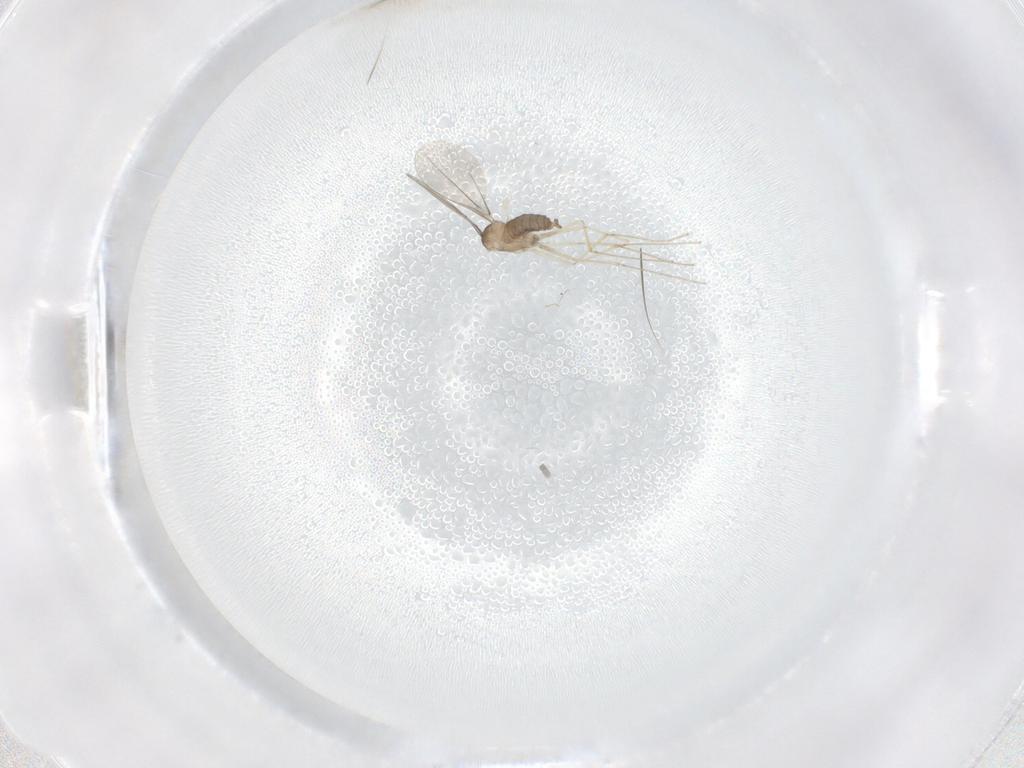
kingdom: Animalia
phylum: Arthropoda
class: Insecta
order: Diptera
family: Cecidomyiidae
